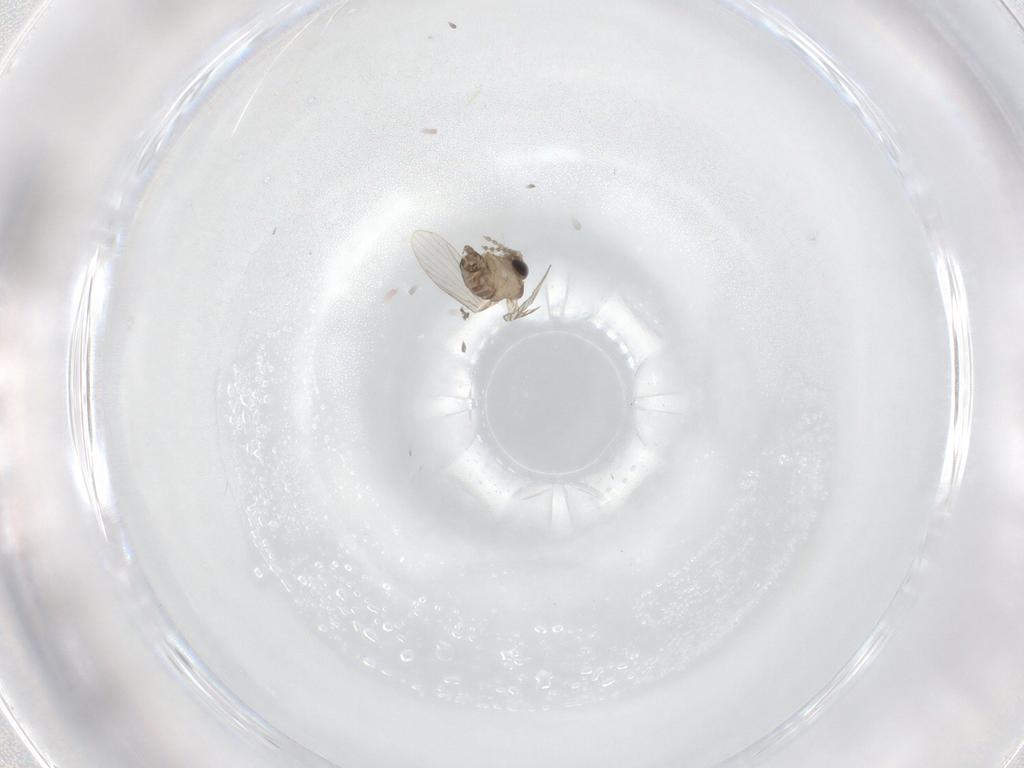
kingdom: Animalia
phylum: Arthropoda
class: Insecta
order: Diptera
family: Psychodidae
